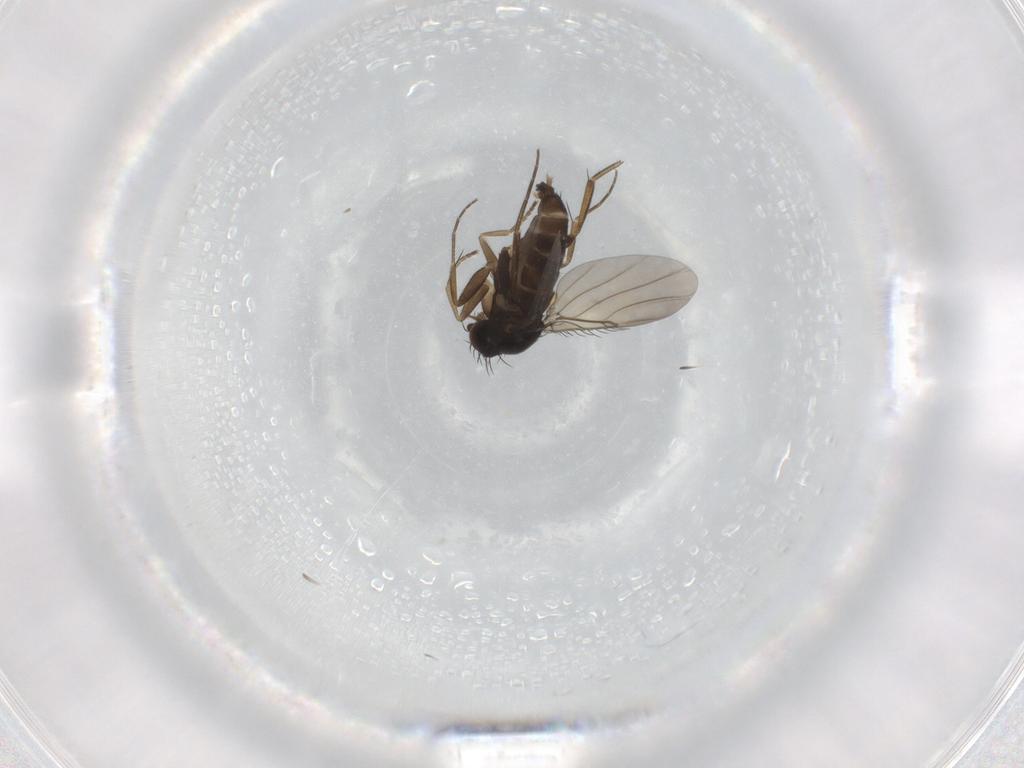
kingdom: Animalia
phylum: Arthropoda
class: Insecta
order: Diptera
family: Phoridae
